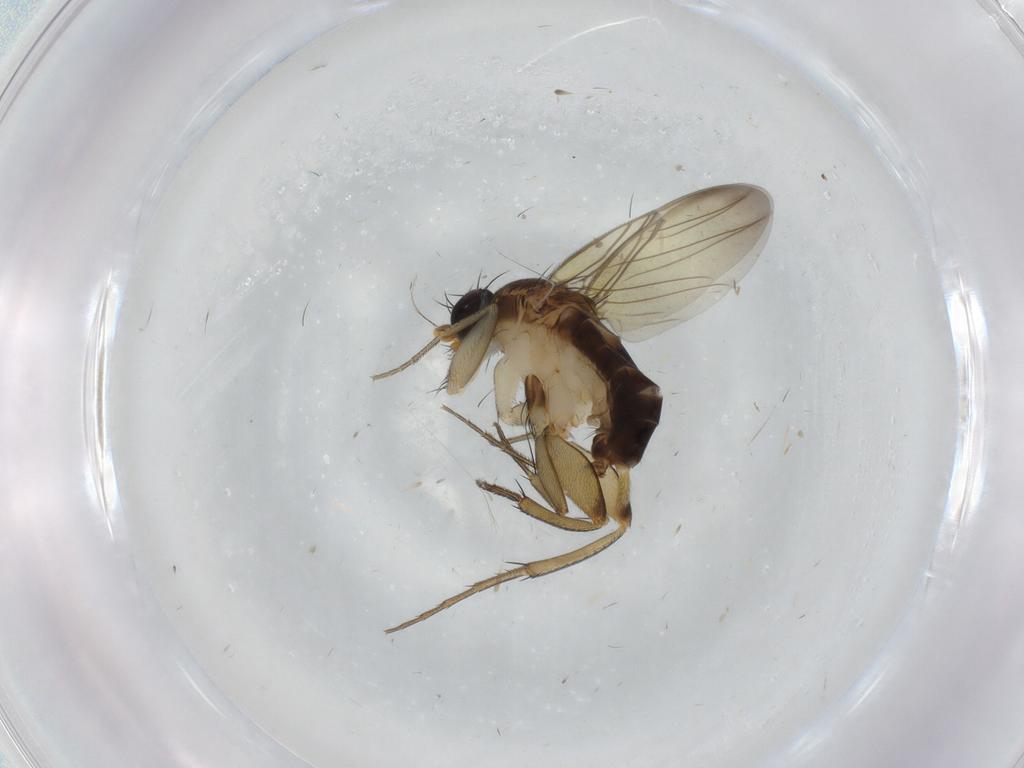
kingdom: Animalia
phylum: Arthropoda
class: Insecta
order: Diptera
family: Phoridae
